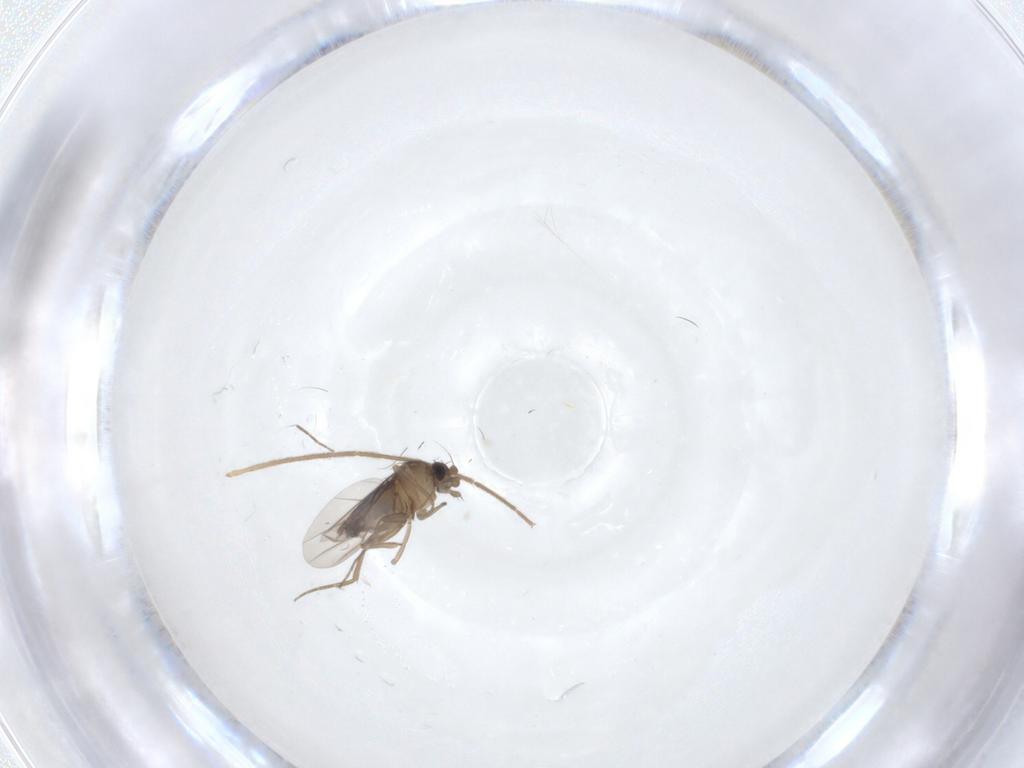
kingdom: Animalia
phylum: Arthropoda
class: Insecta
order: Diptera
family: Phoridae
